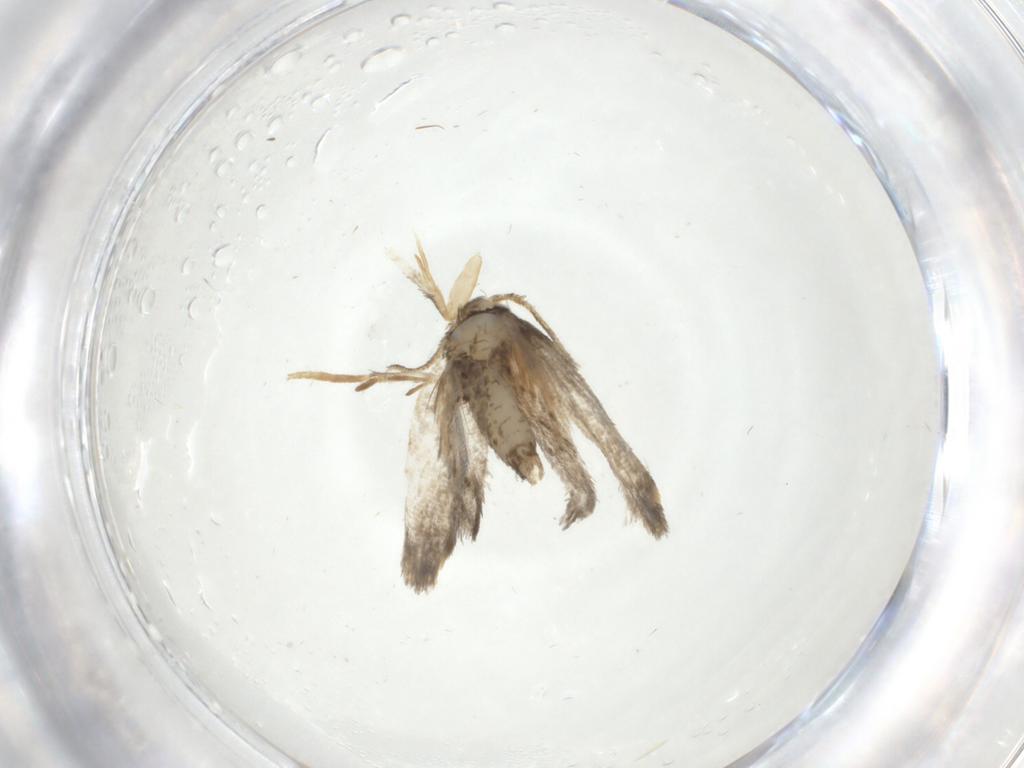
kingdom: Animalia
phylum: Arthropoda
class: Insecta
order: Lepidoptera
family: Psychidae
